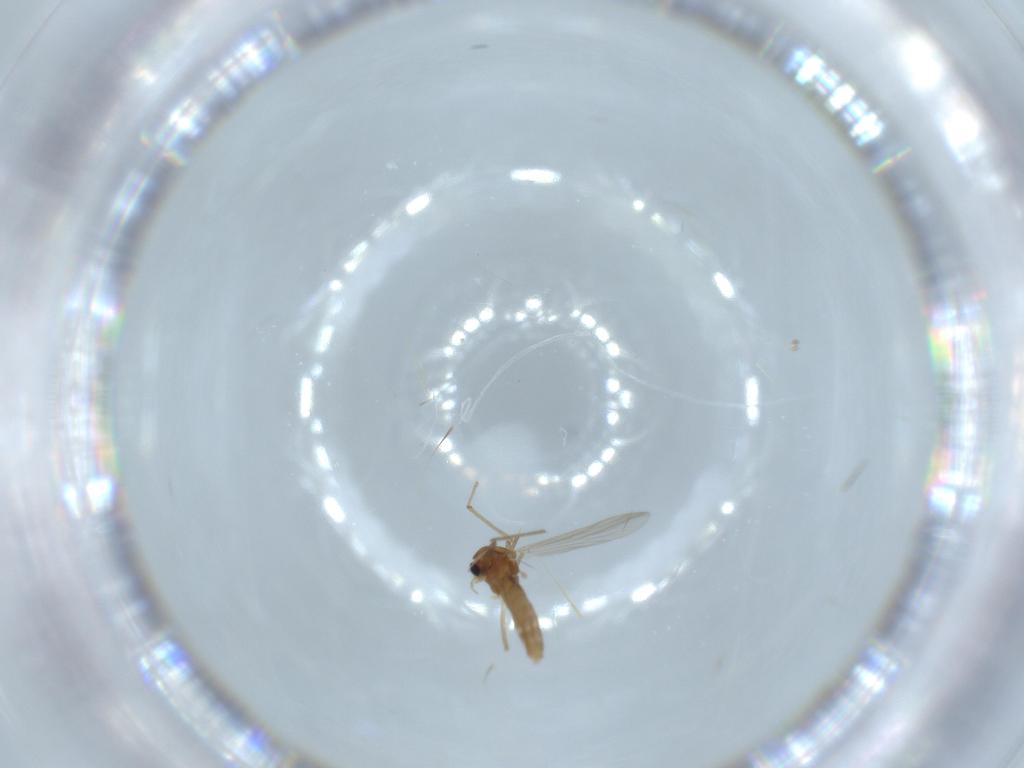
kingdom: Animalia
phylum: Arthropoda
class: Insecta
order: Diptera
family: Chironomidae
